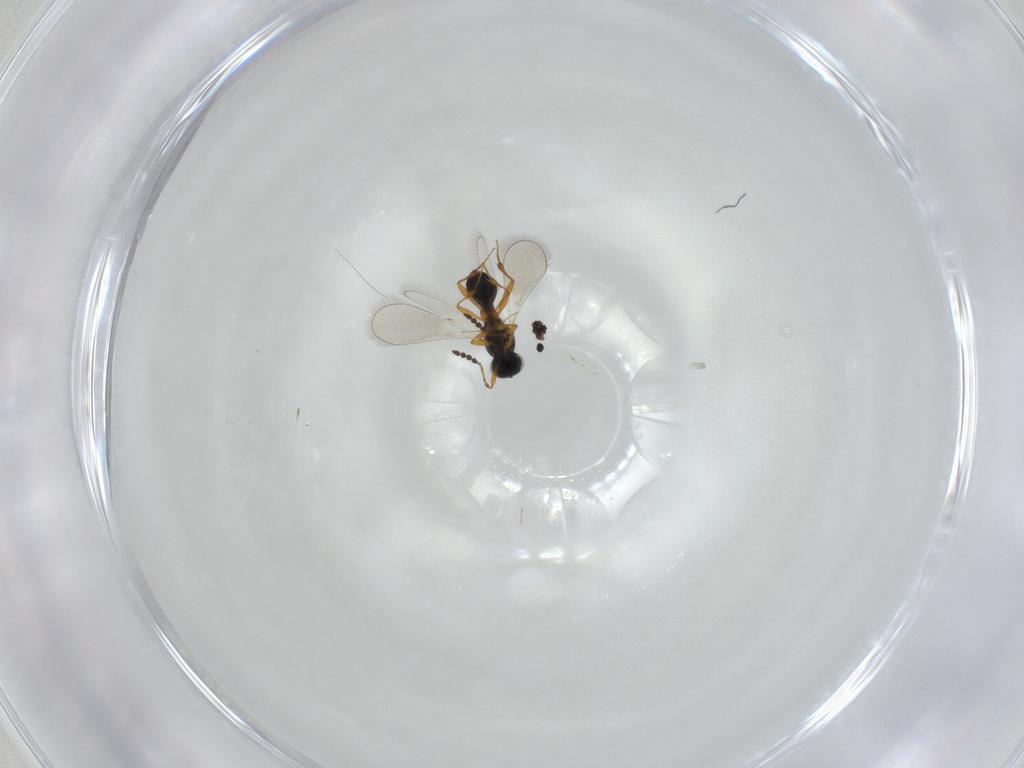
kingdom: Animalia
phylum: Arthropoda
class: Insecta
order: Hymenoptera
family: Platygastridae
